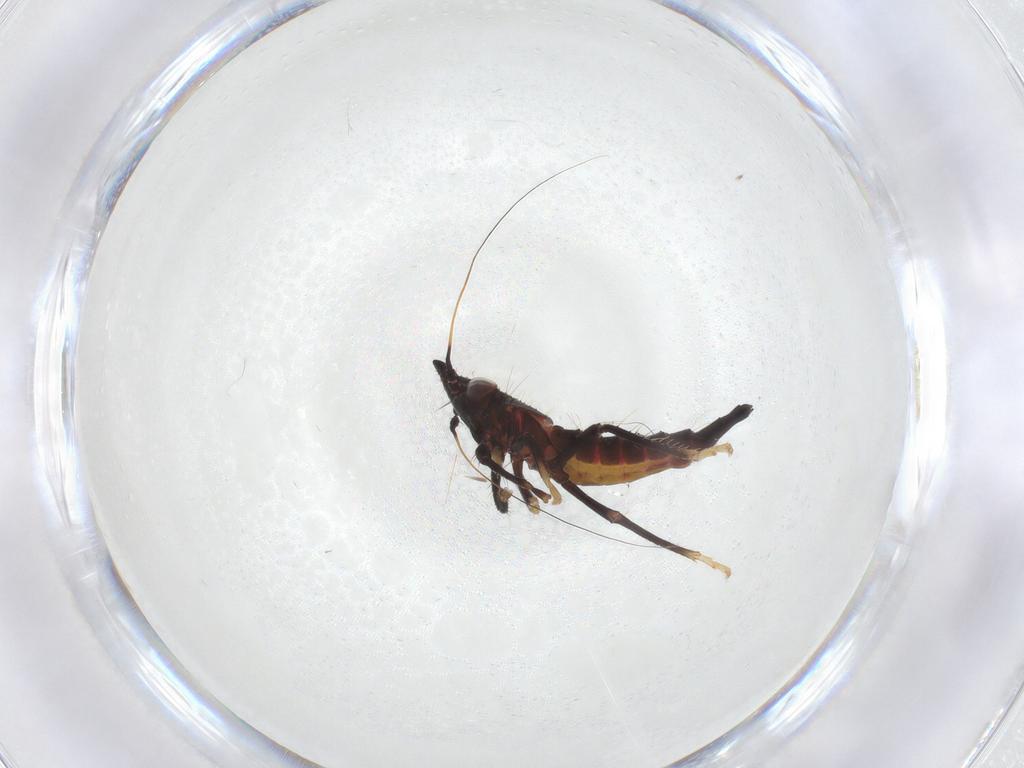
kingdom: Animalia
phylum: Arthropoda
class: Insecta
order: Hemiptera
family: Cicadellidae
